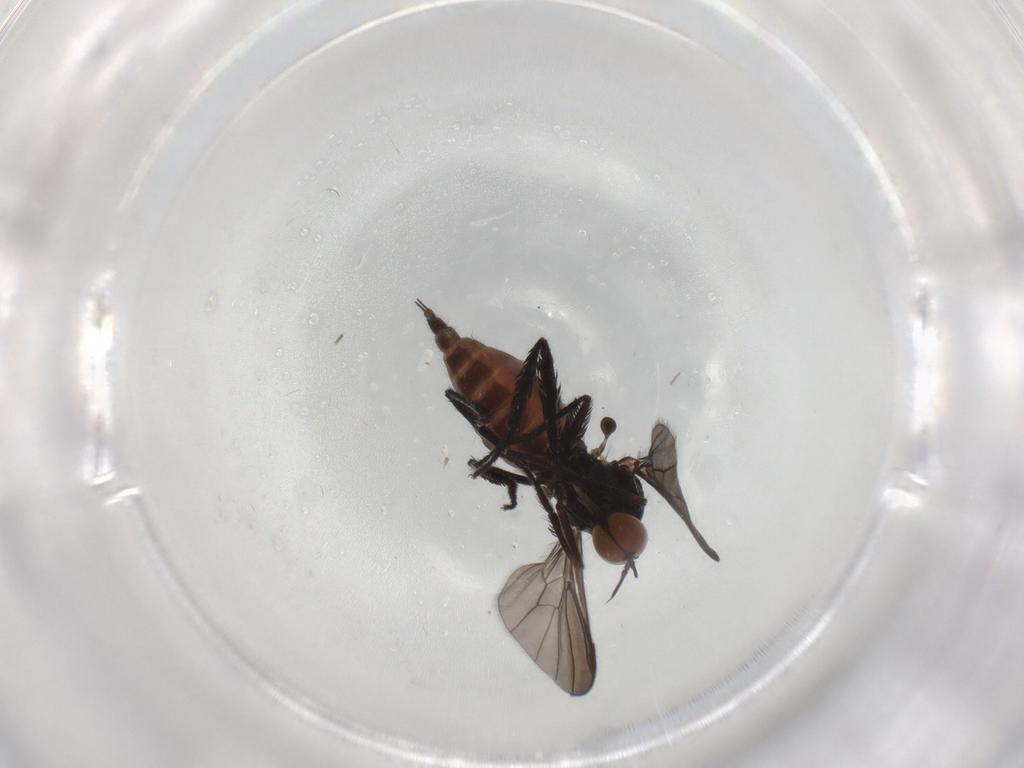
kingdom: Animalia
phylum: Arthropoda
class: Insecta
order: Diptera
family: Empididae
